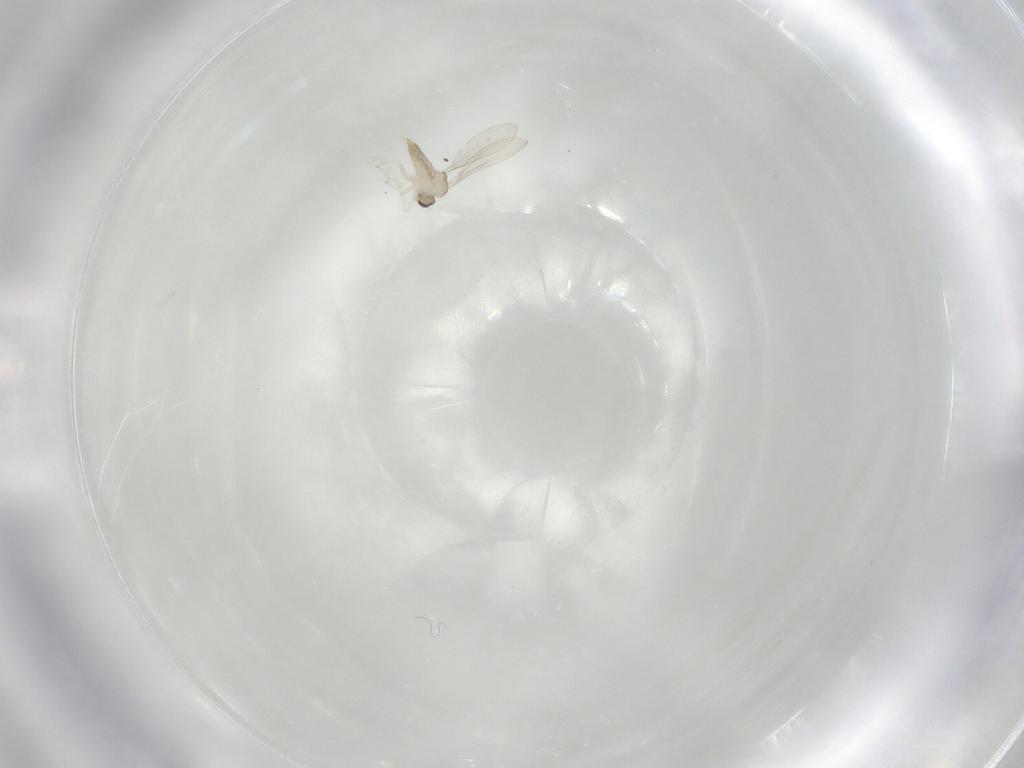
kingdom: Animalia
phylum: Arthropoda
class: Insecta
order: Diptera
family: Cecidomyiidae
